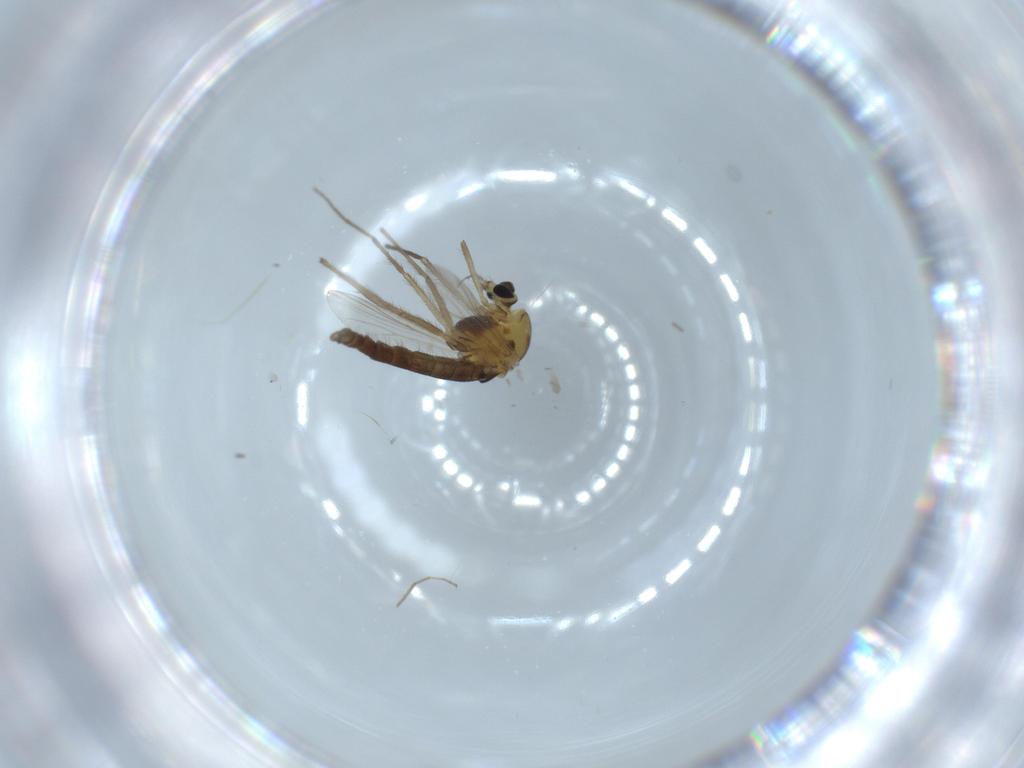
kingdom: Animalia
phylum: Arthropoda
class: Insecta
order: Diptera
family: Chironomidae
